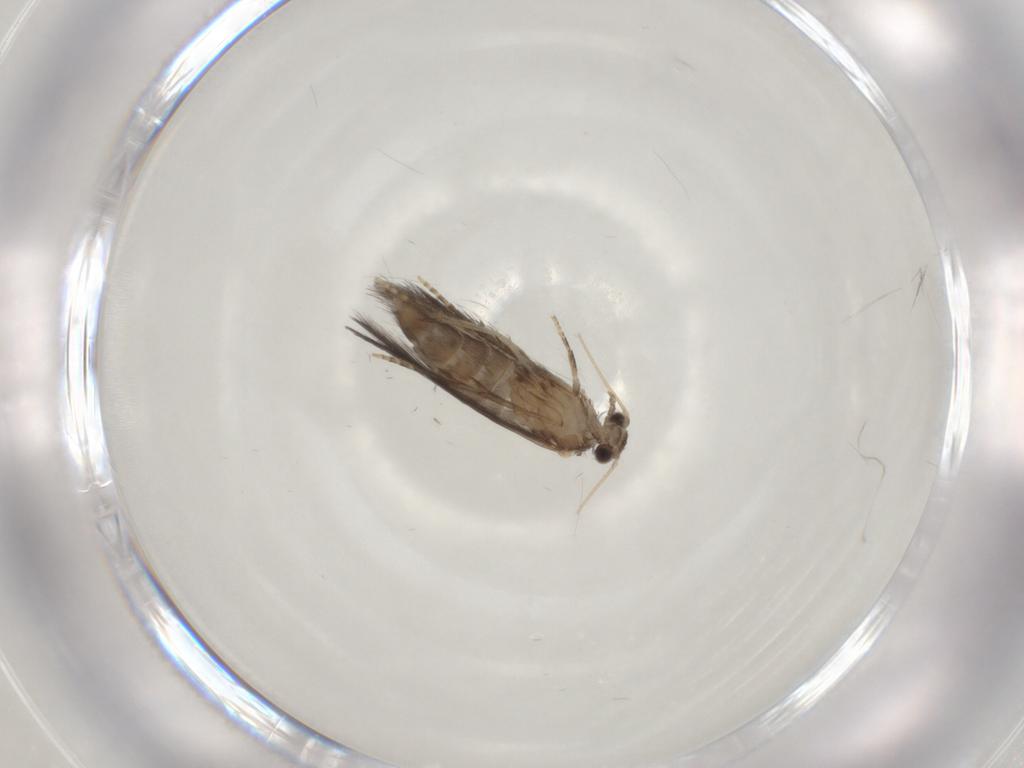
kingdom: Animalia
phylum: Arthropoda
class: Insecta
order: Trichoptera
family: Hydroptilidae
